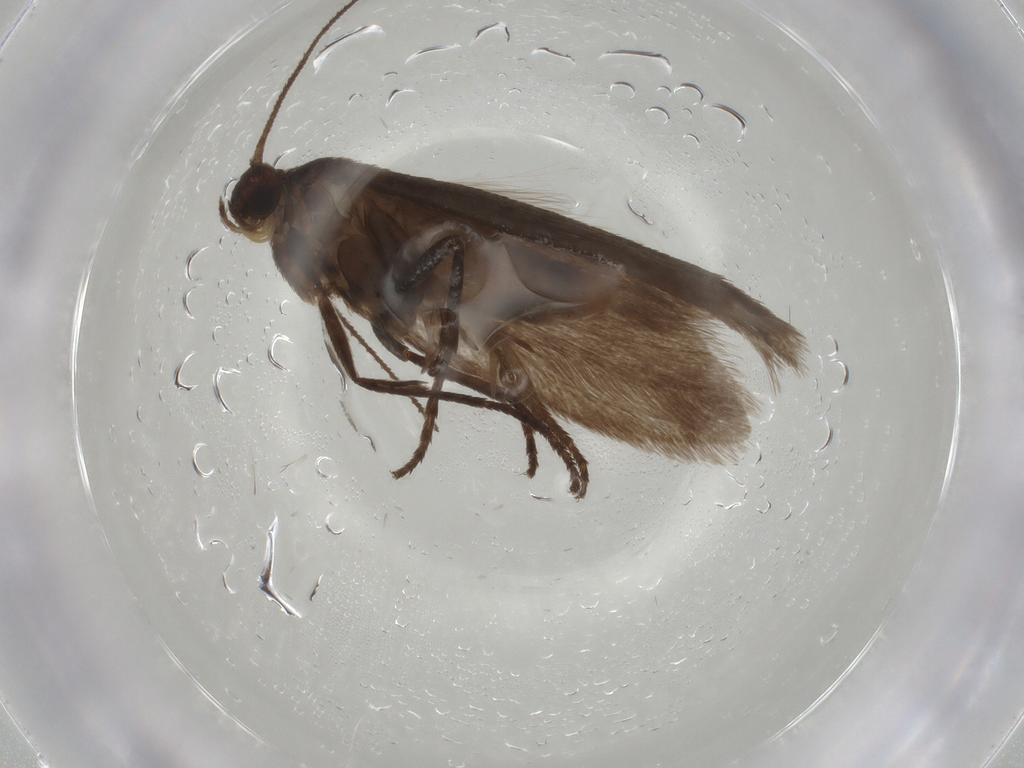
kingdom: Animalia
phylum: Arthropoda
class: Insecta
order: Lepidoptera
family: Limacodidae
